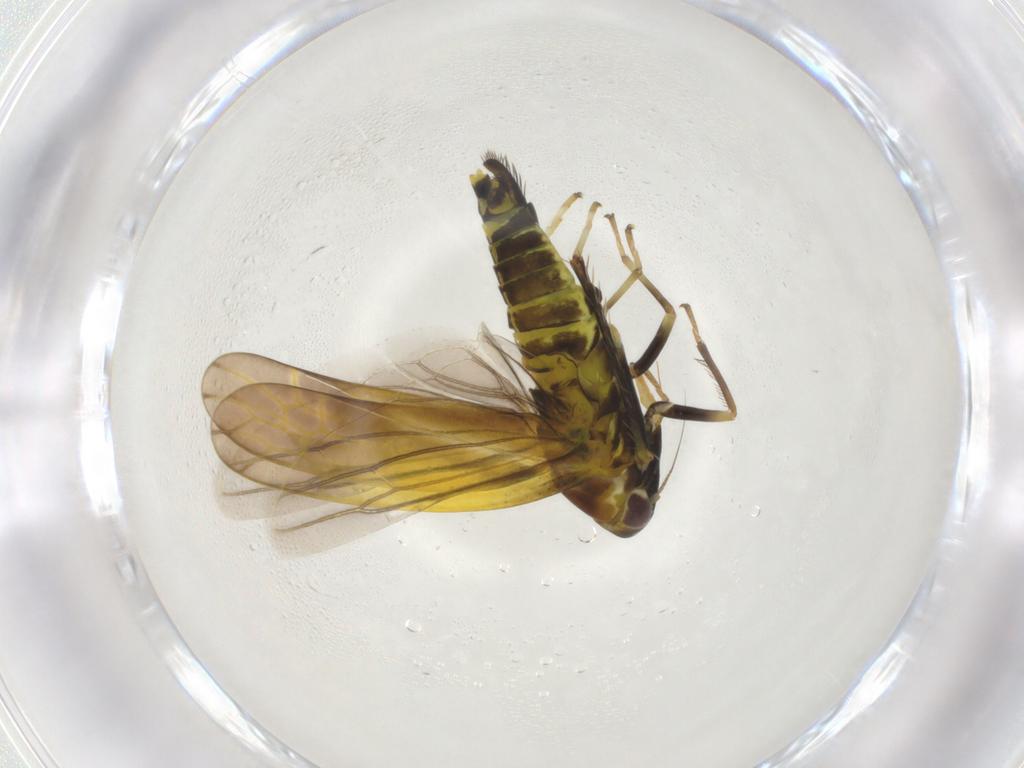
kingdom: Animalia
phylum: Arthropoda
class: Insecta
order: Hemiptera
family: Cicadellidae
